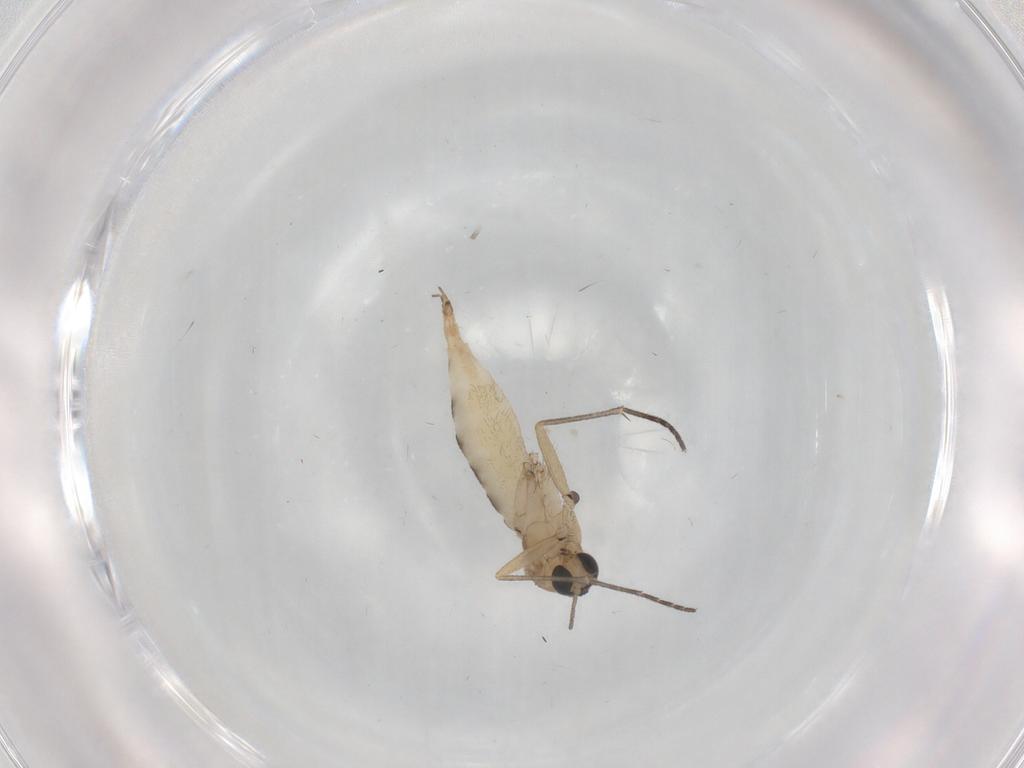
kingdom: Animalia
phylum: Arthropoda
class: Insecta
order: Diptera
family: Sciaridae
